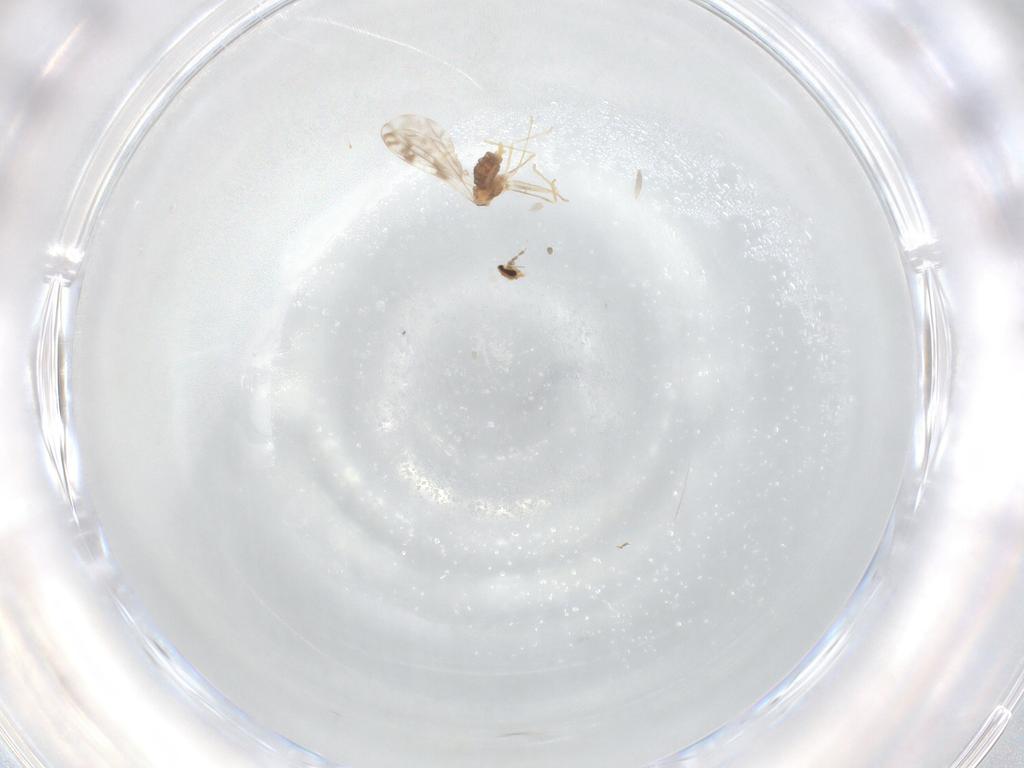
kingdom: Animalia
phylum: Arthropoda
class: Insecta
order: Diptera
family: Cecidomyiidae
